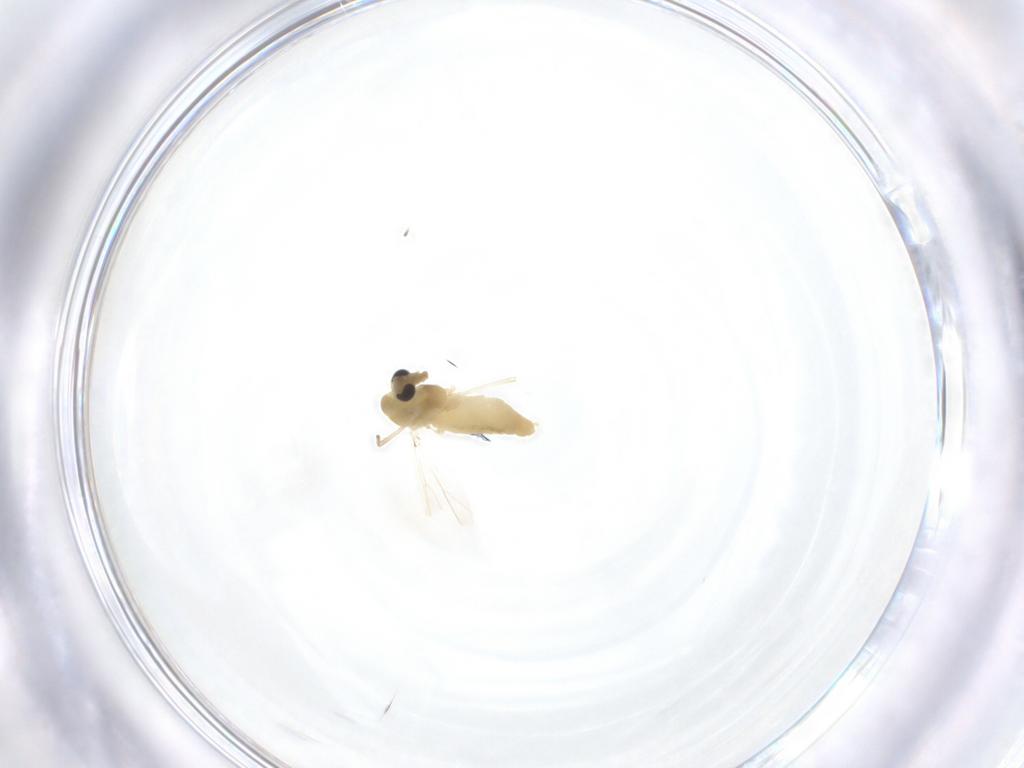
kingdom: Animalia
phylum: Arthropoda
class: Insecta
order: Diptera
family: Chironomidae
